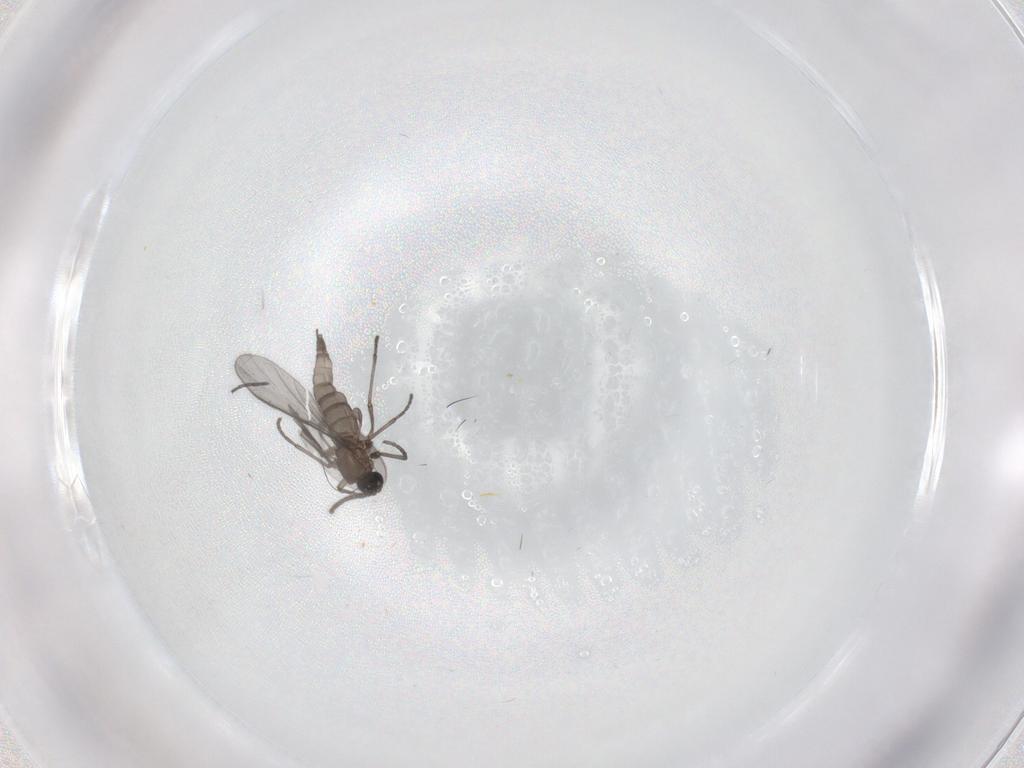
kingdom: Animalia
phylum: Arthropoda
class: Insecta
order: Diptera
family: Sciaridae
